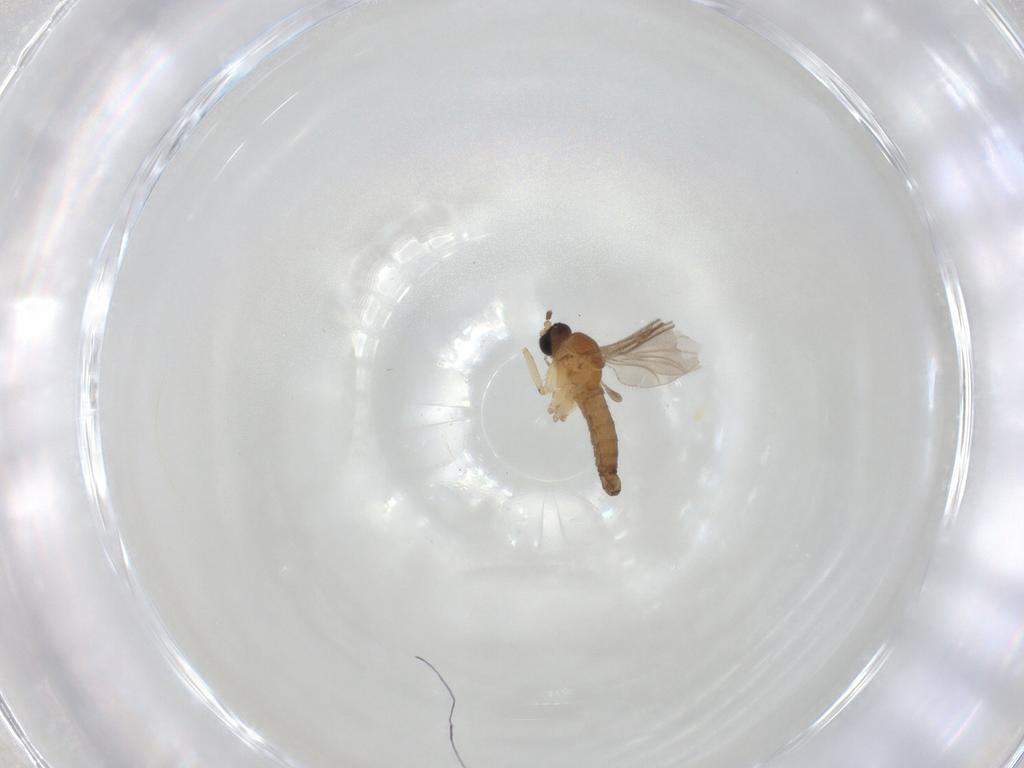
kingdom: Animalia
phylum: Arthropoda
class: Insecta
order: Diptera
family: Sciaridae
